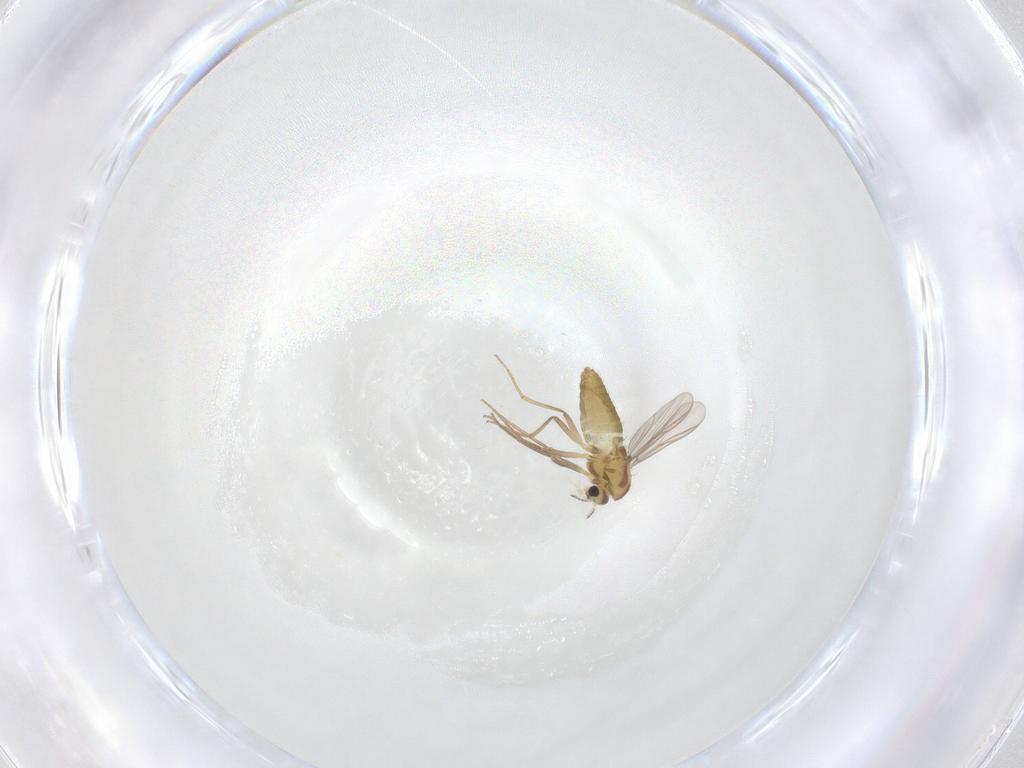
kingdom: Animalia
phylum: Arthropoda
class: Insecta
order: Diptera
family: Chironomidae
